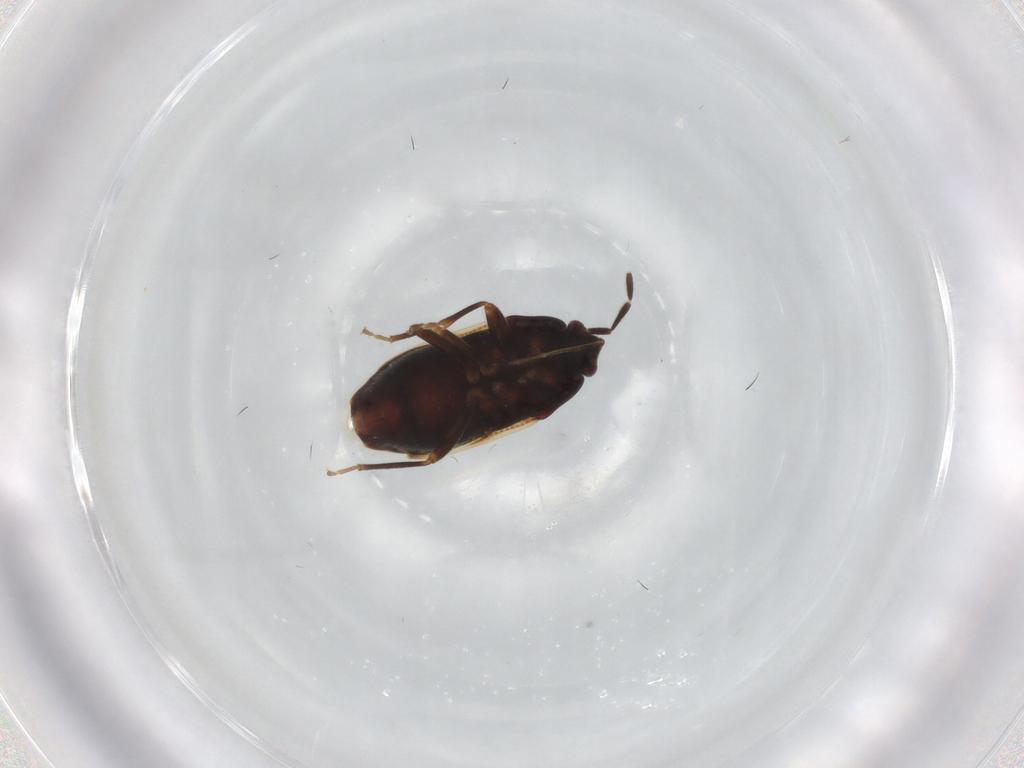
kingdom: Animalia
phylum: Arthropoda
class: Insecta
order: Hemiptera
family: Rhyparochromidae
